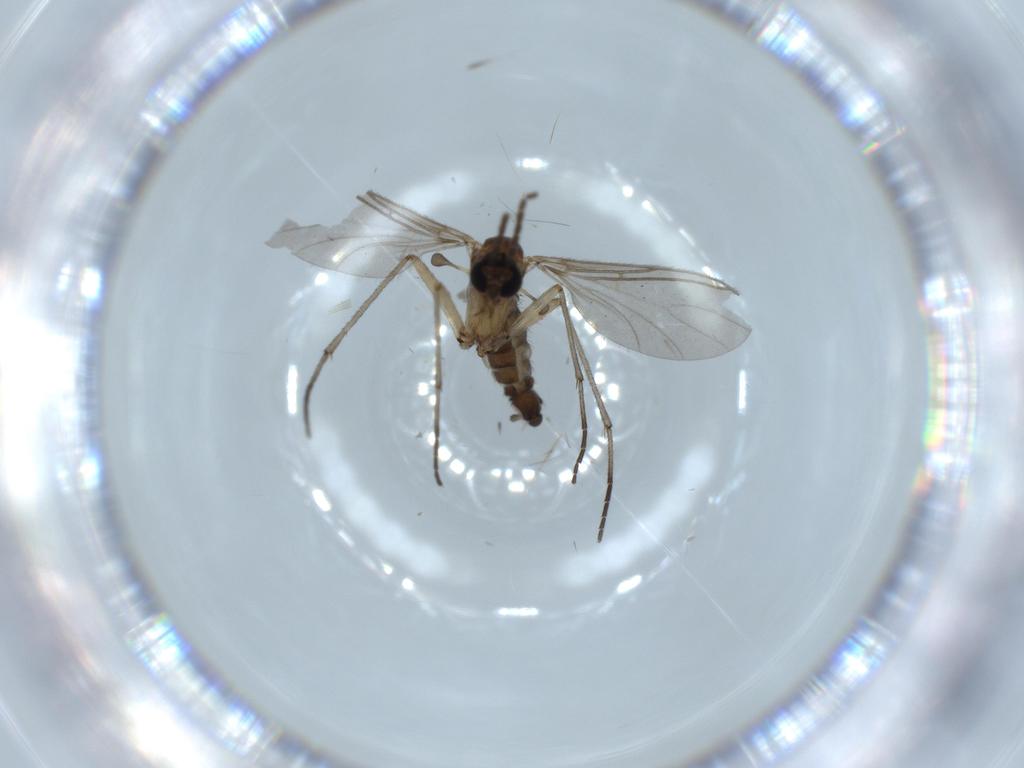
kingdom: Animalia
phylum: Arthropoda
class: Insecta
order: Diptera
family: Sciaridae
